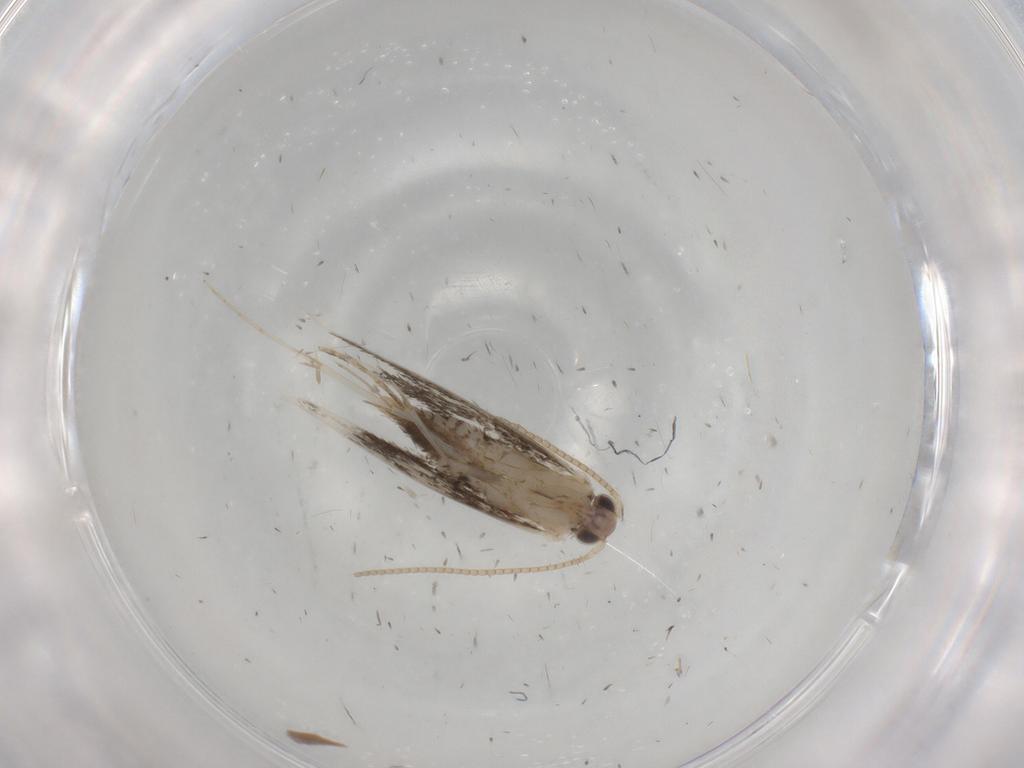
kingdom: Animalia
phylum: Arthropoda
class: Insecta
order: Lepidoptera
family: Tineidae
